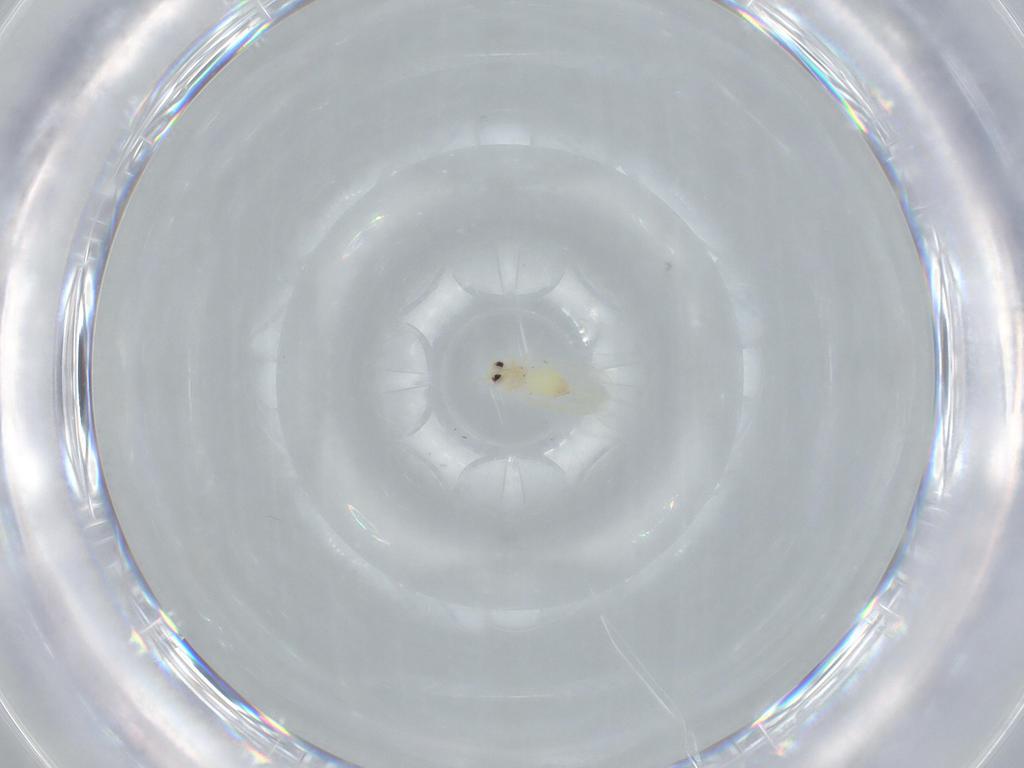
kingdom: Animalia
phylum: Arthropoda
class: Insecta
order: Hemiptera
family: Aleyrodidae
